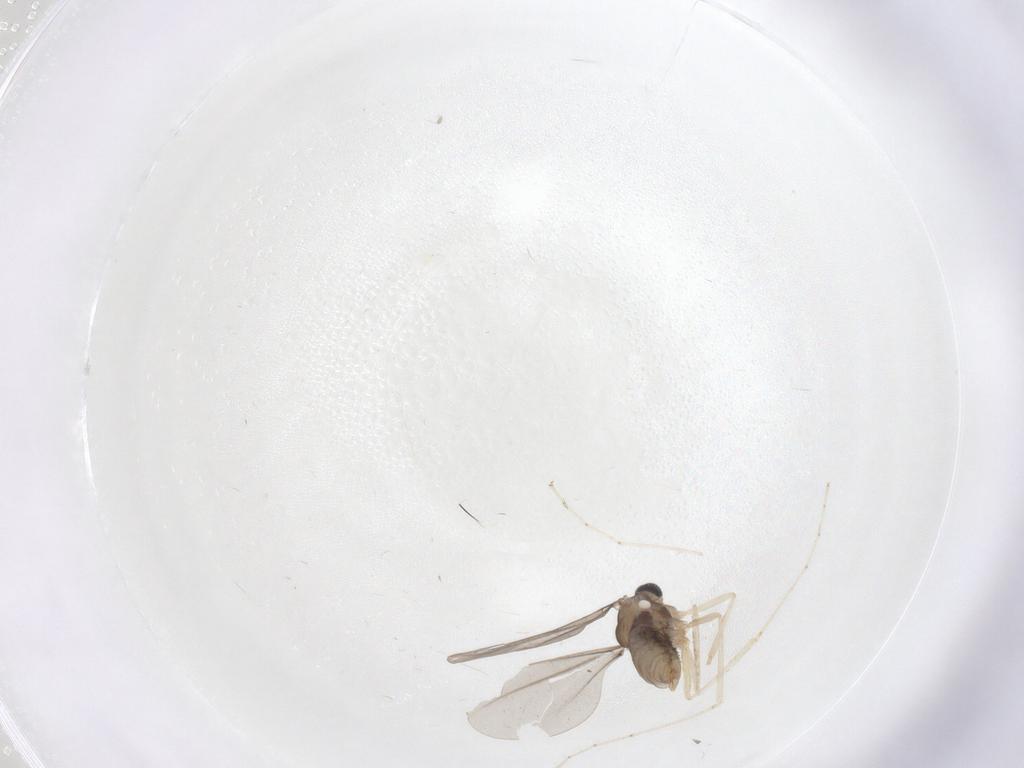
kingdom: Animalia
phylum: Arthropoda
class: Insecta
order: Diptera
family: Cecidomyiidae
